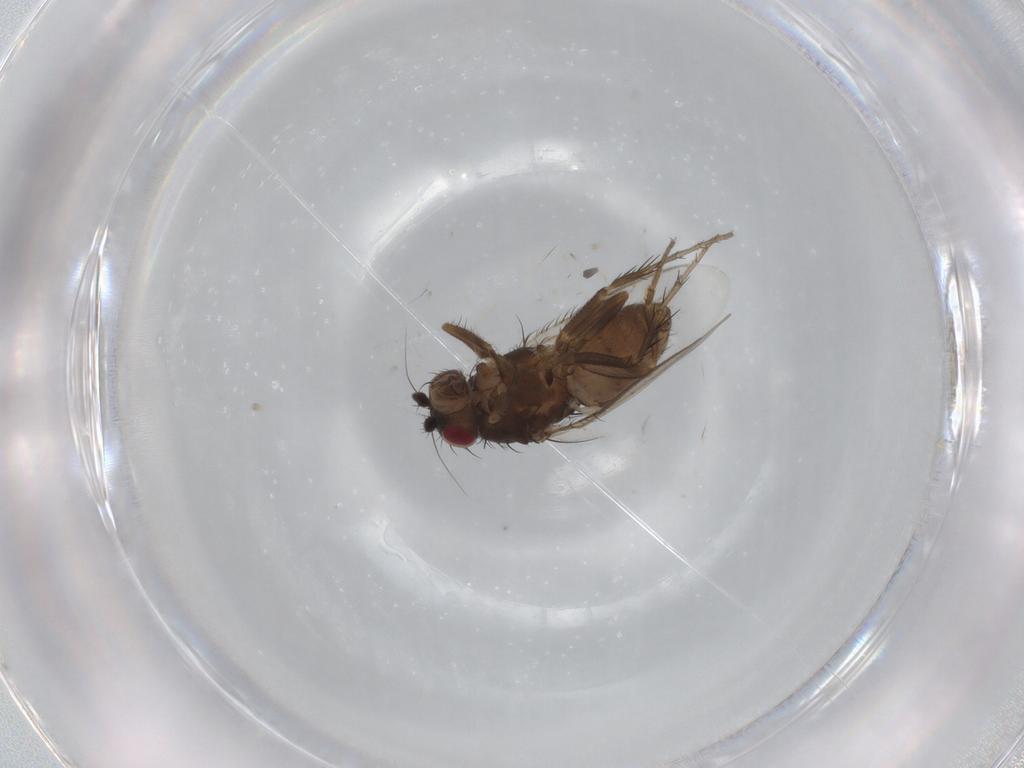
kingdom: Animalia
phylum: Arthropoda
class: Insecta
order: Diptera
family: Sphaeroceridae
